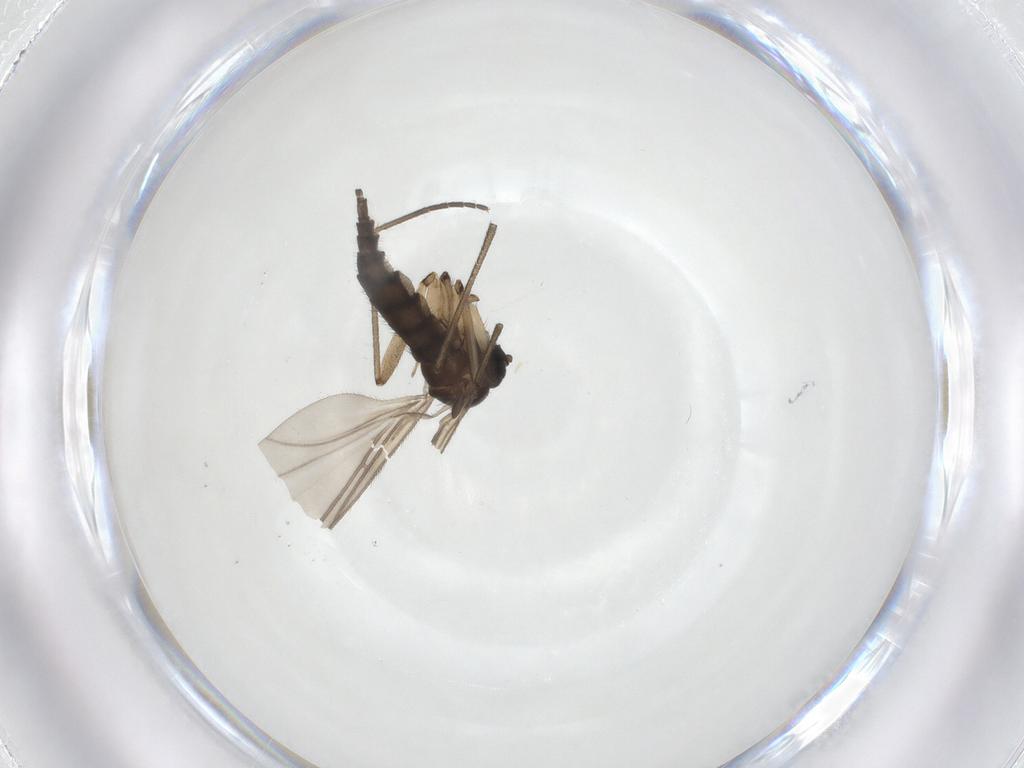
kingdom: Animalia
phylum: Arthropoda
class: Insecta
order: Diptera
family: Sciaridae
